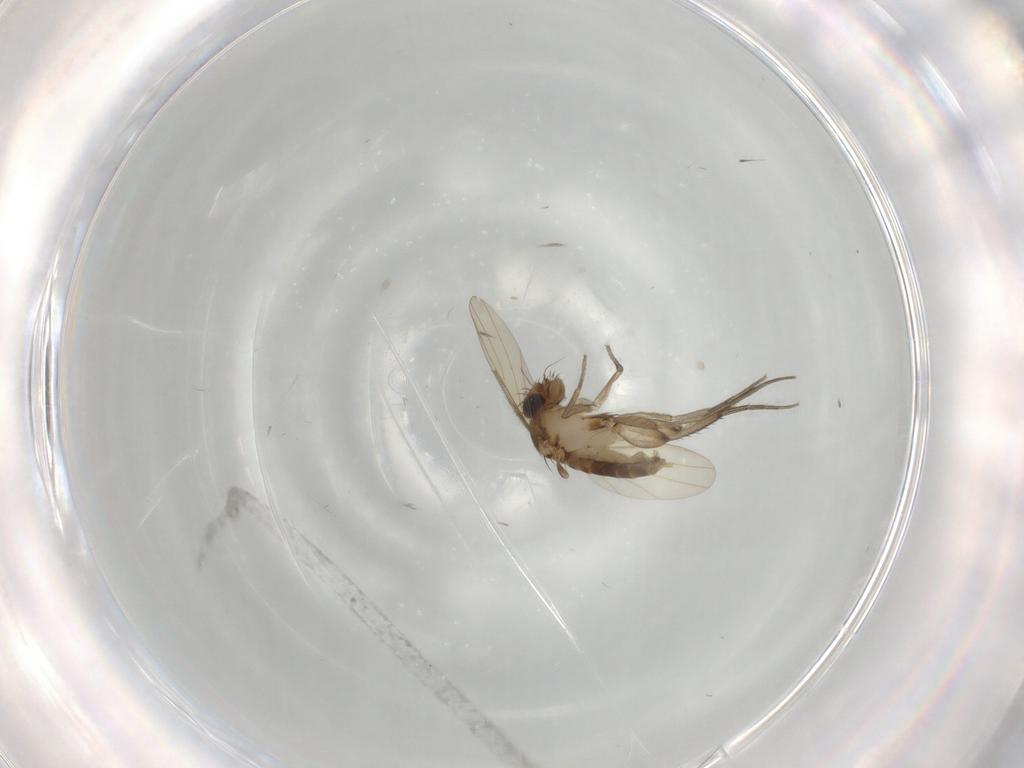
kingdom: Animalia
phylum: Arthropoda
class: Insecta
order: Diptera
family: Phoridae
